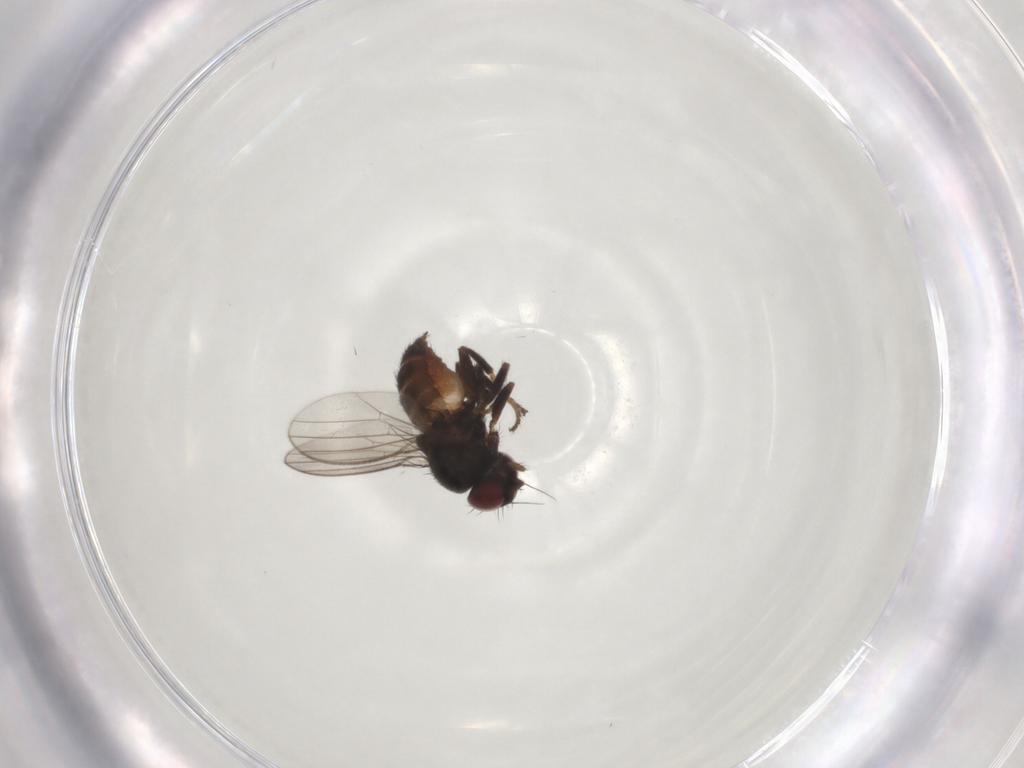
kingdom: Animalia
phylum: Arthropoda
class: Insecta
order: Diptera
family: Milichiidae
